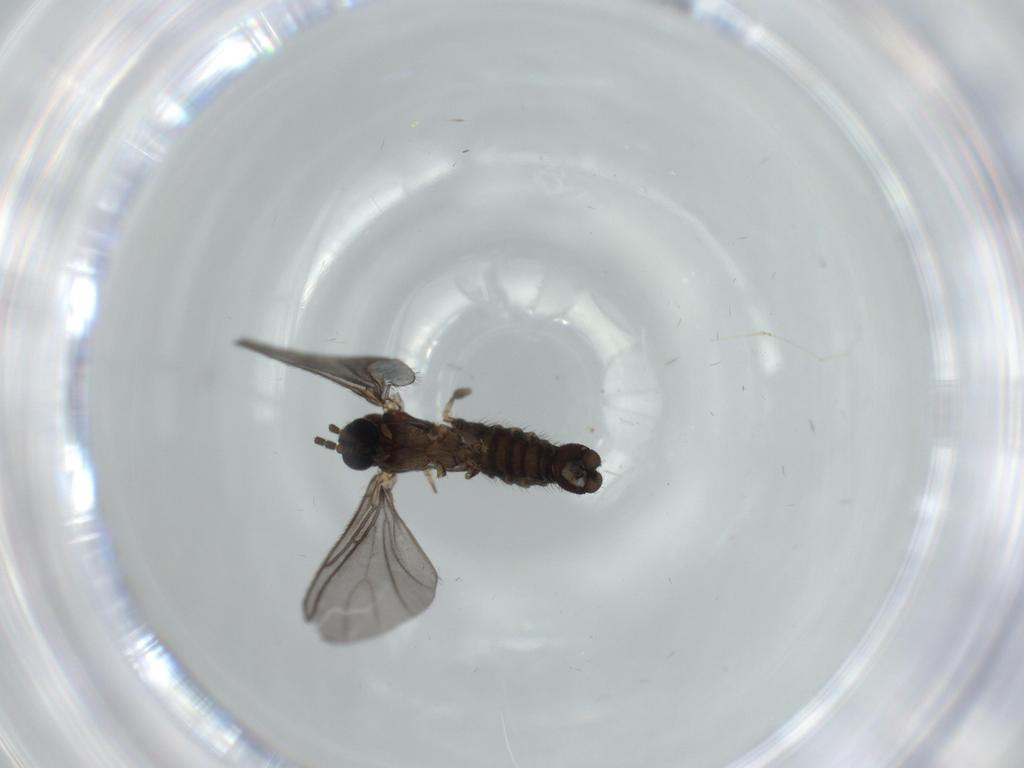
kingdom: Animalia
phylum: Arthropoda
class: Insecta
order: Diptera
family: Sciaridae
